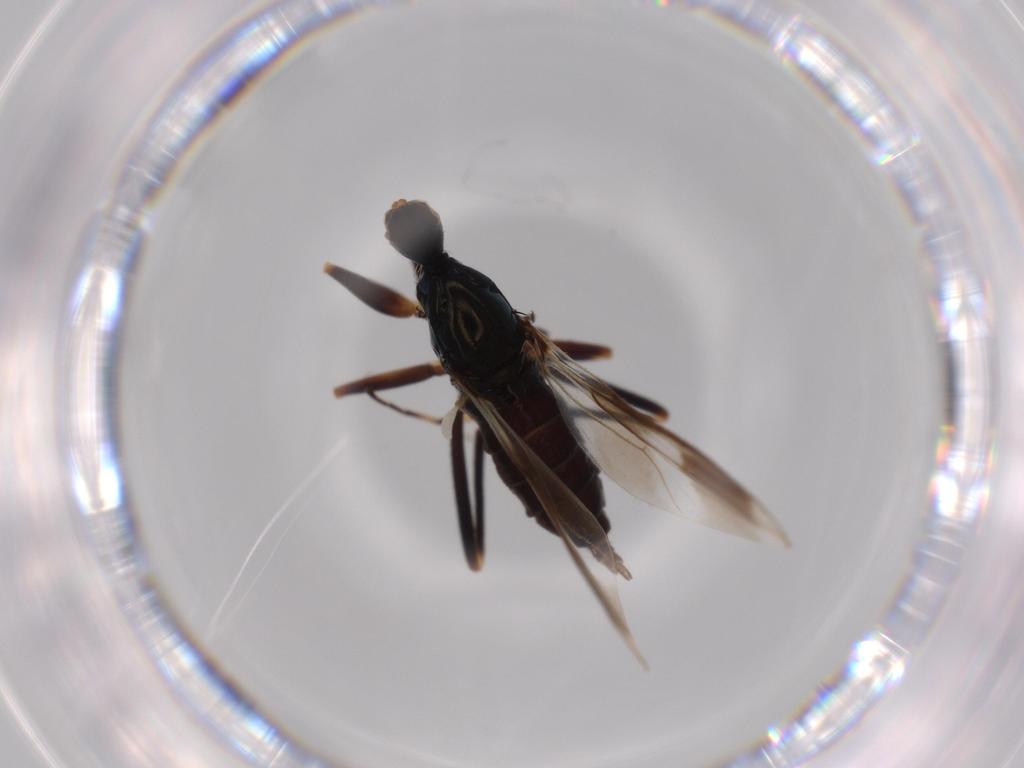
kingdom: Animalia
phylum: Arthropoda
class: Insecta
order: Diptera
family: Hybotidae
